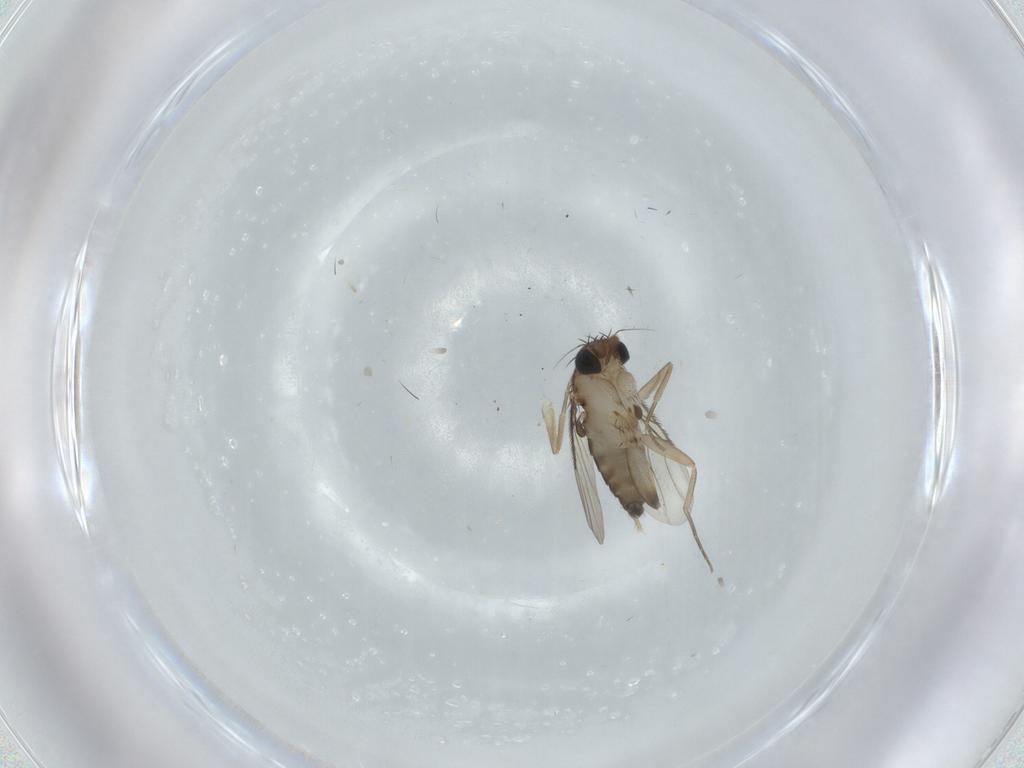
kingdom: Animalia
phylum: Arthropoda
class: Insecta
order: Diptera
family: Phoridae
